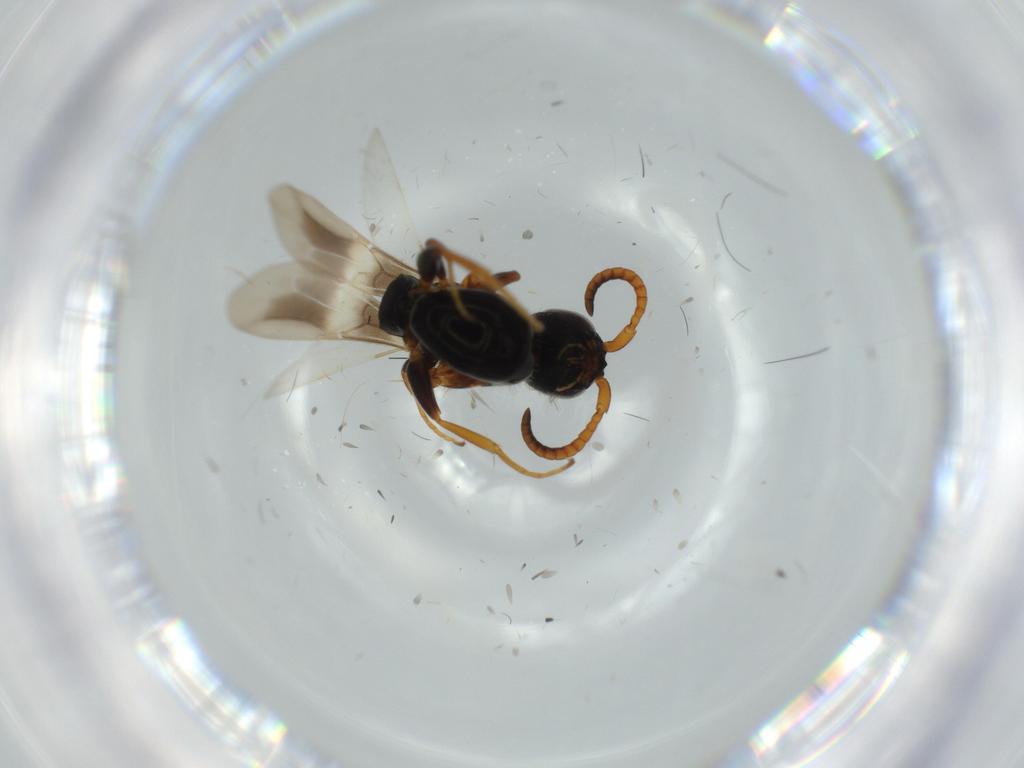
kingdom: Animalia
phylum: Arthropoda
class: Insecta
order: Hymenoptera
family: Bethylidae
